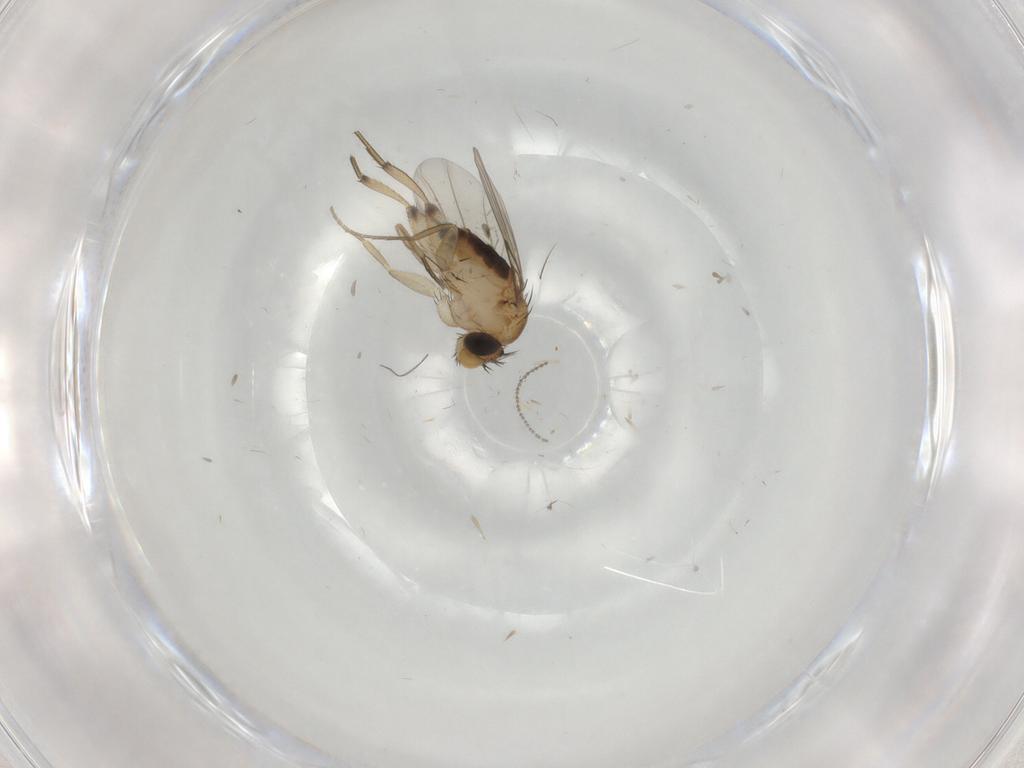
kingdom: Animalia
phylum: Arthropoda
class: Insecta
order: Diptera
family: Cecidomyiidae
